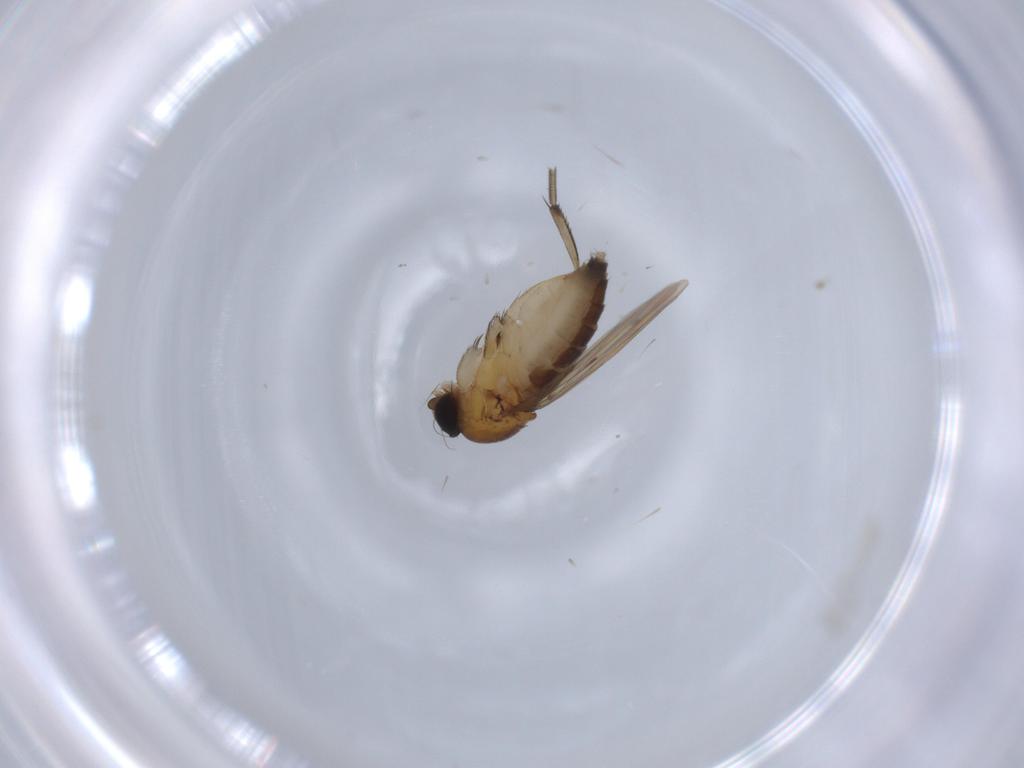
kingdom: Animalia
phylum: Arthropoda
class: Insecta
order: Diptera
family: Phoridae
